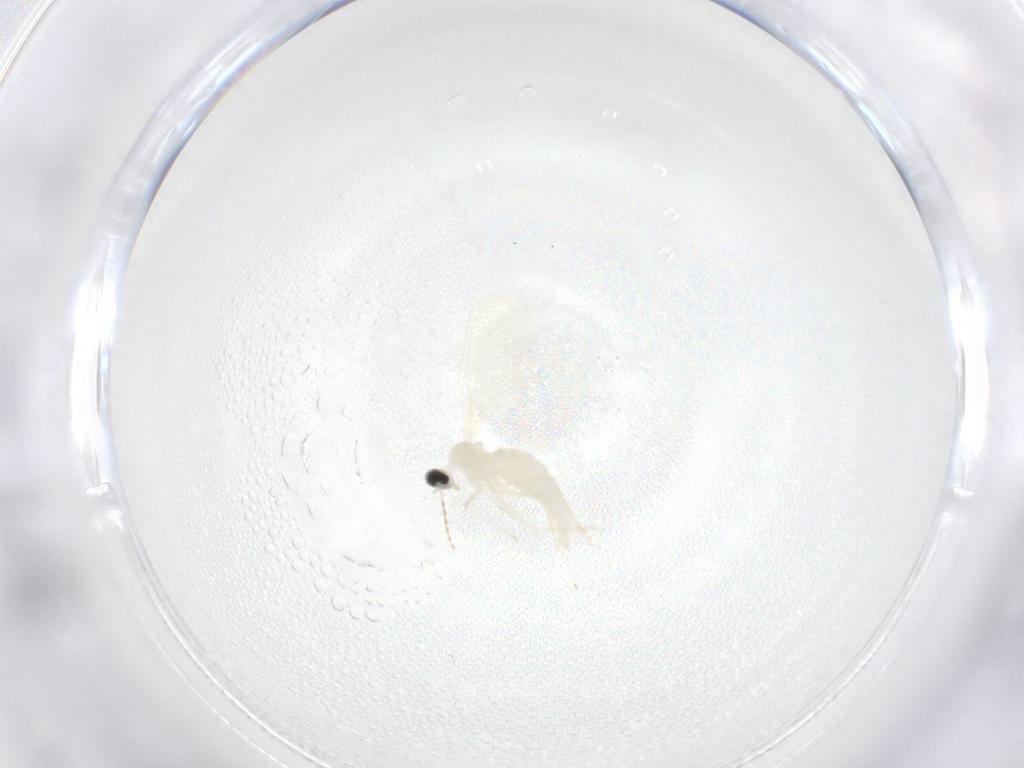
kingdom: Animalia
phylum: Arthropoda
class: Insecta
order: Diptera
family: Cecidomyiidae
